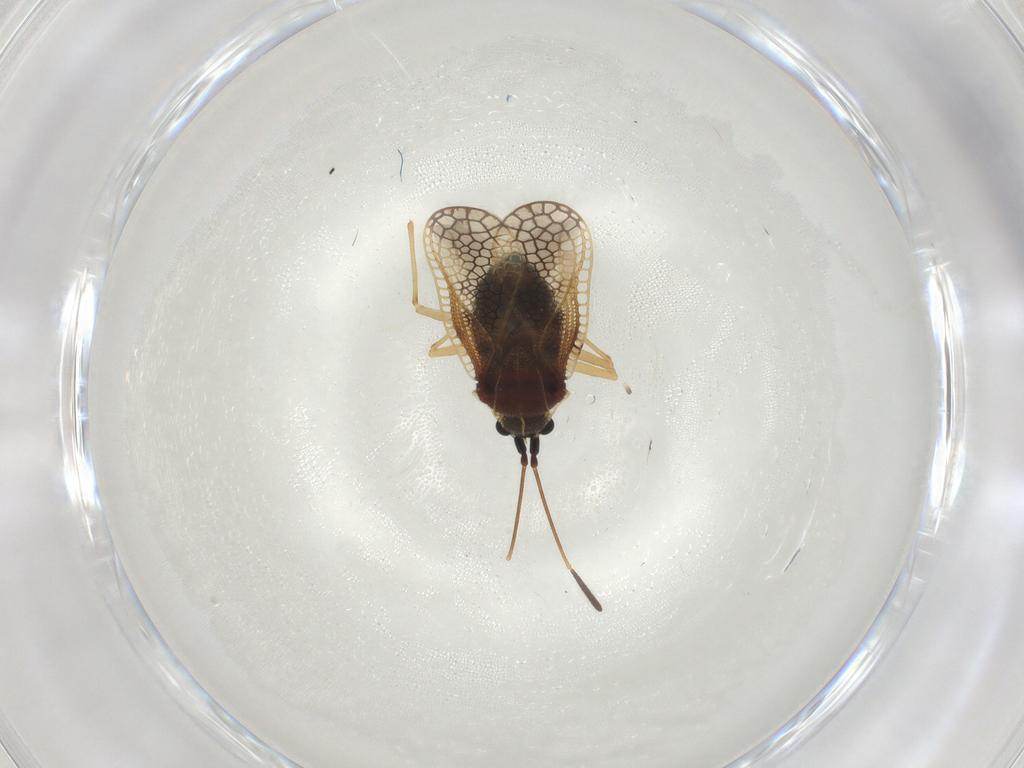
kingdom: Animalia
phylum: Arthropoda
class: Insecta
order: Hemiptera
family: Tingidae
